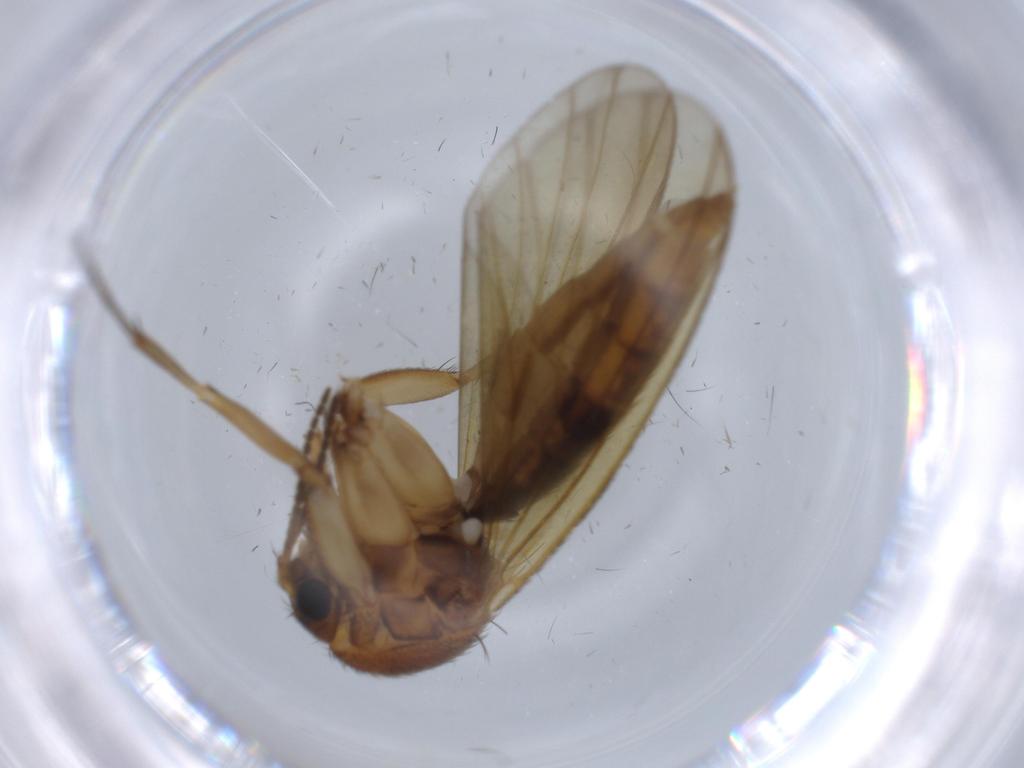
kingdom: Animalia
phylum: Arthropoda
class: Insecta
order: Diptera
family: Cecidomyiidae
